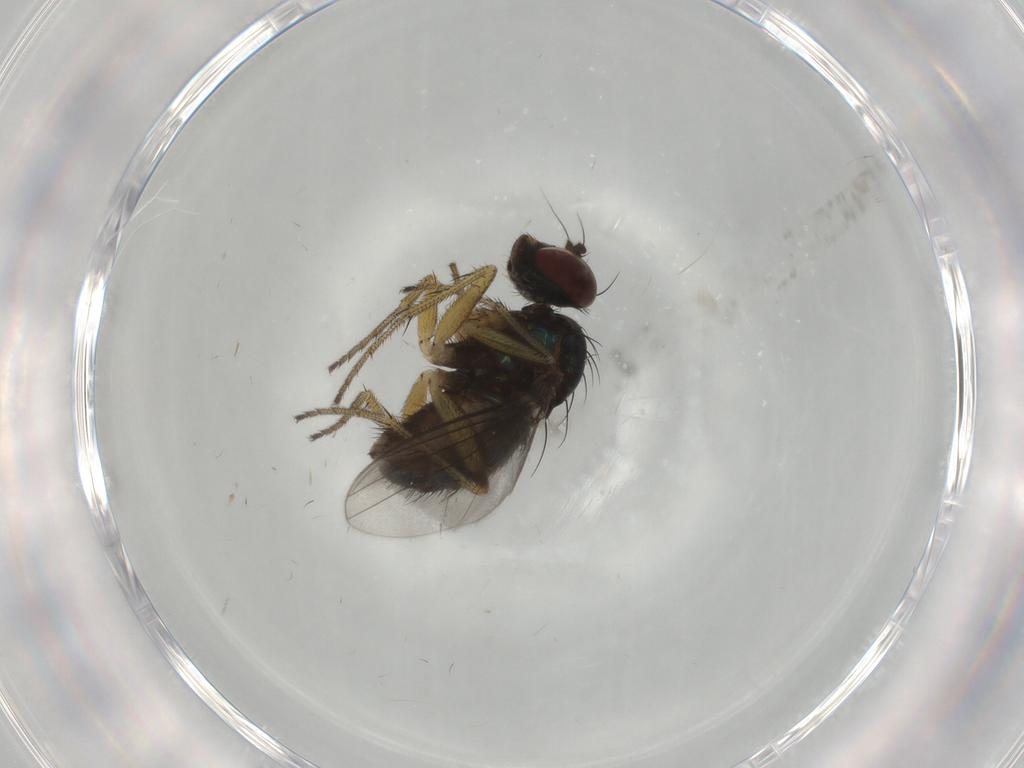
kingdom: Animalia
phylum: Arthropoda
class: Insecta
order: Diptera
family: Dolichopodidae
